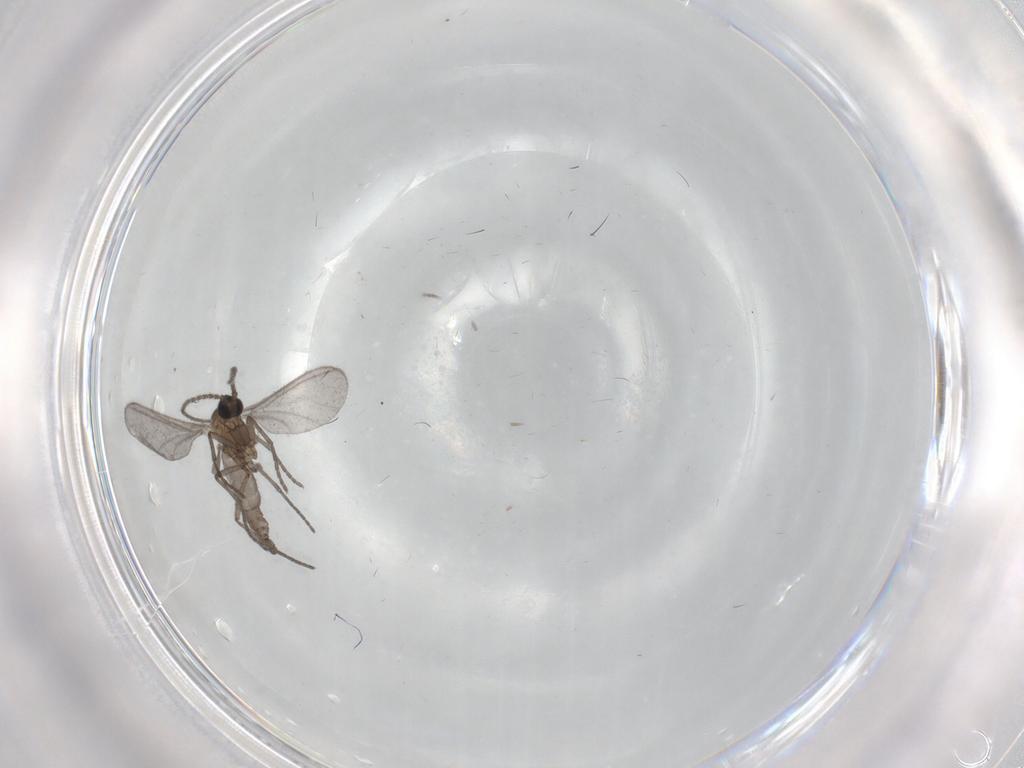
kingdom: Animalia
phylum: Arthropoda
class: Insecta
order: Diptera
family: Sciaridae
